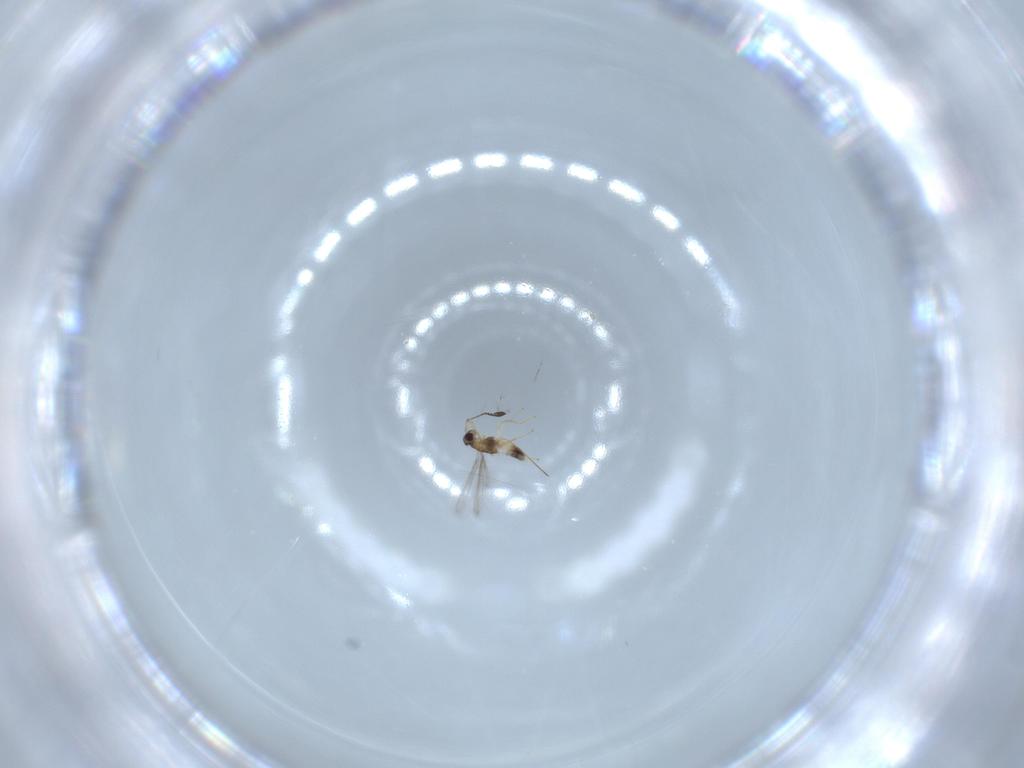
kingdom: Animalia
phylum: Arthropoda
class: Insecta
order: Hymenoptera
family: Mymaridae
